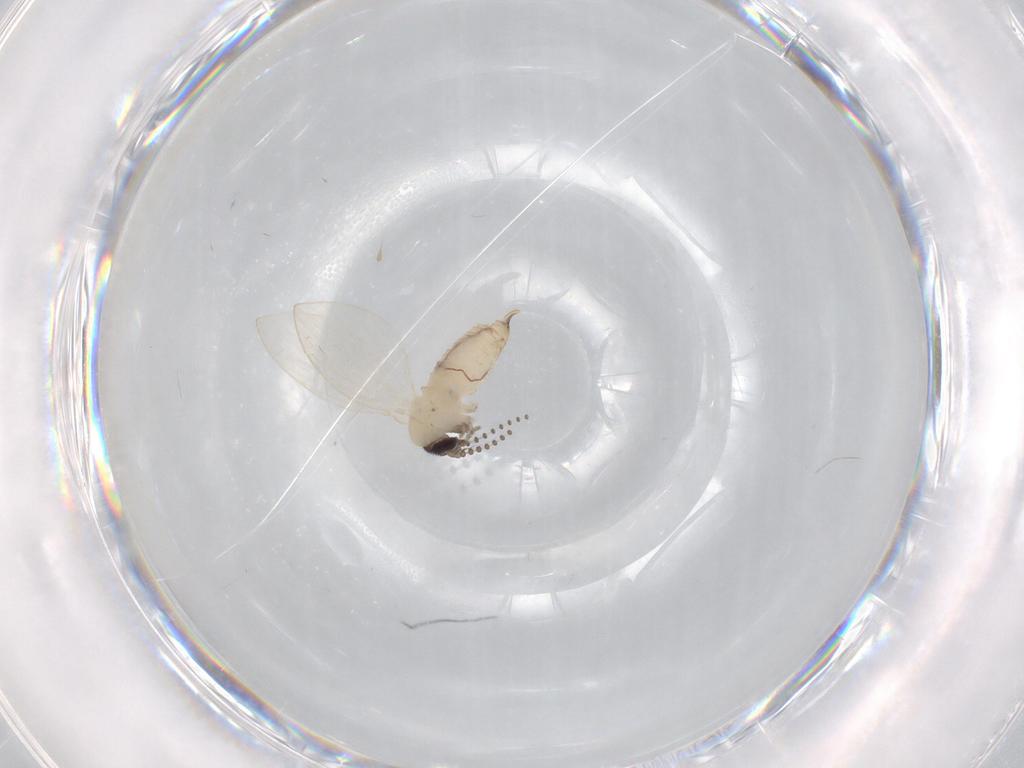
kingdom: Animalia
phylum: Arthropoda
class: Insecta
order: Diptera
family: Psychodidae
